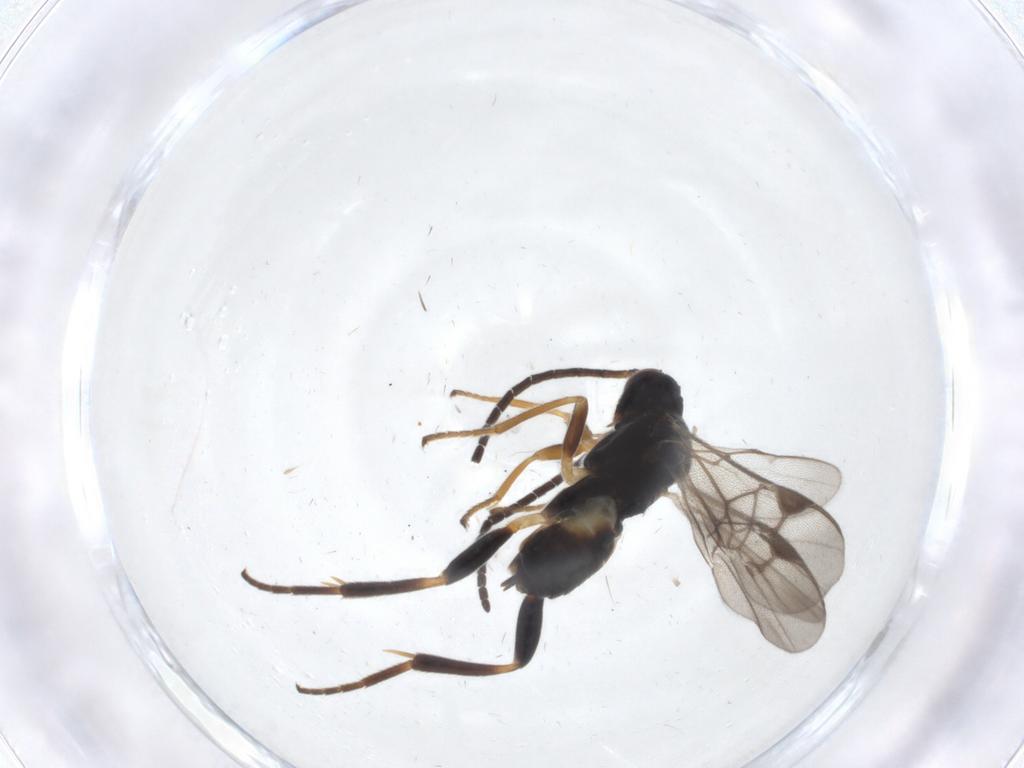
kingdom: Animalia
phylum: Arthropoda
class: Insecta
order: Hymenoptera
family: Braconidae
